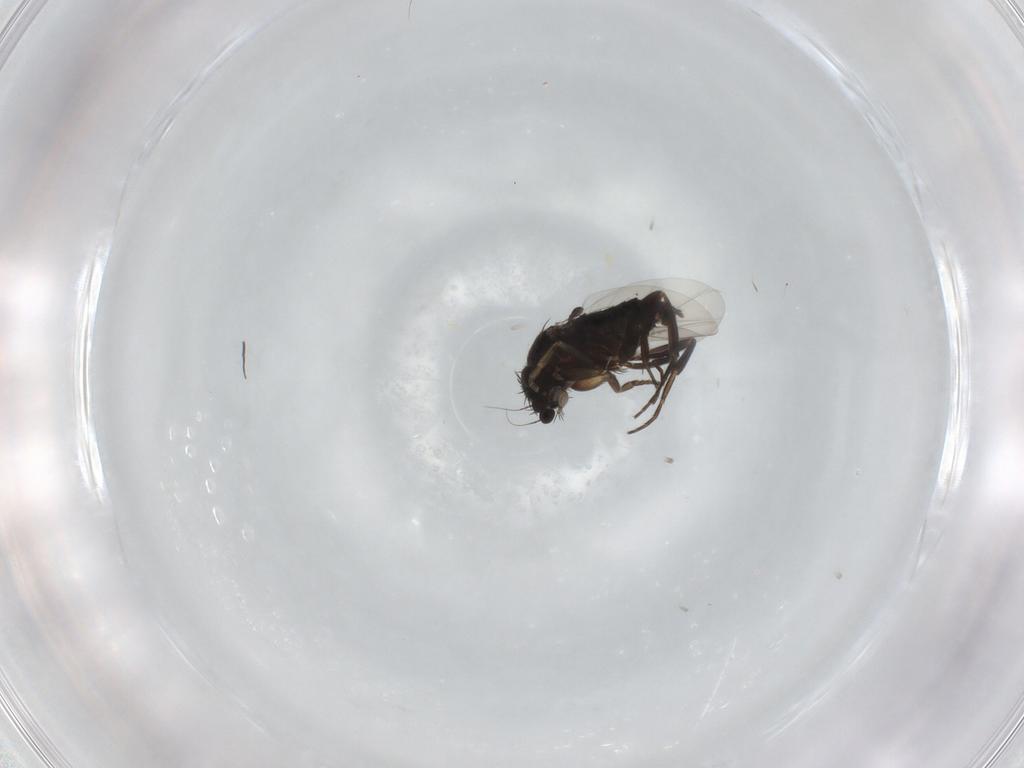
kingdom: Animalia
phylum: Arthropoda
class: Insecta
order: Diptera
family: Phoridae
